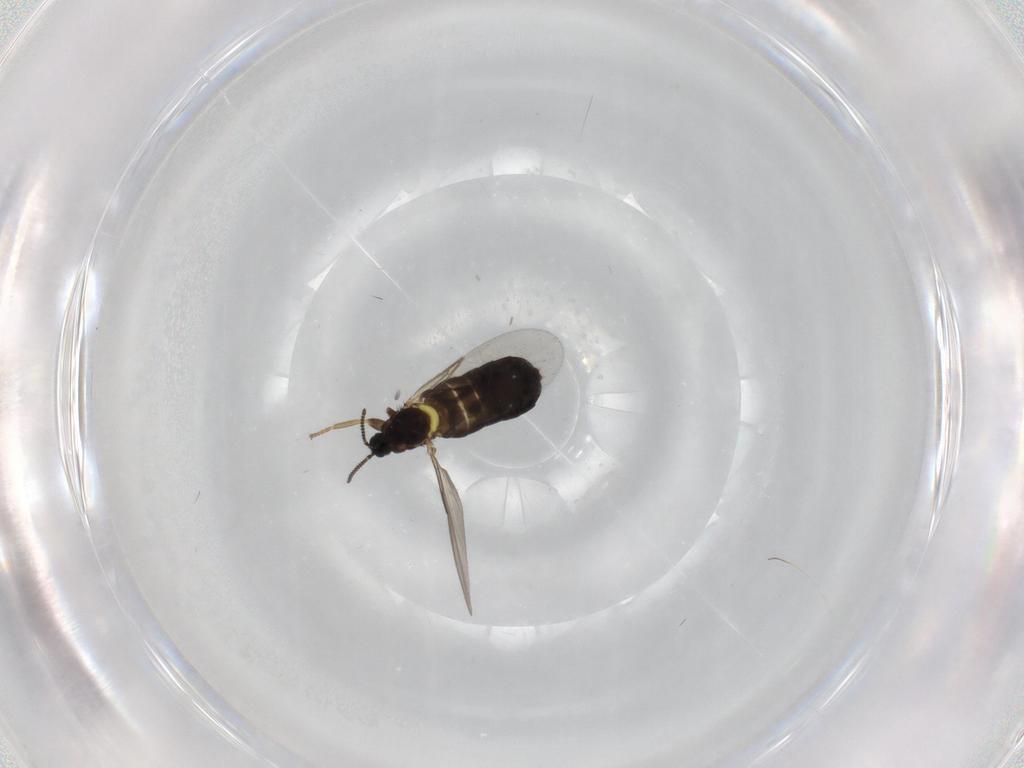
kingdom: Animalia
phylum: Arthropoda
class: Insecta
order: Diptera
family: Scatopsidae
